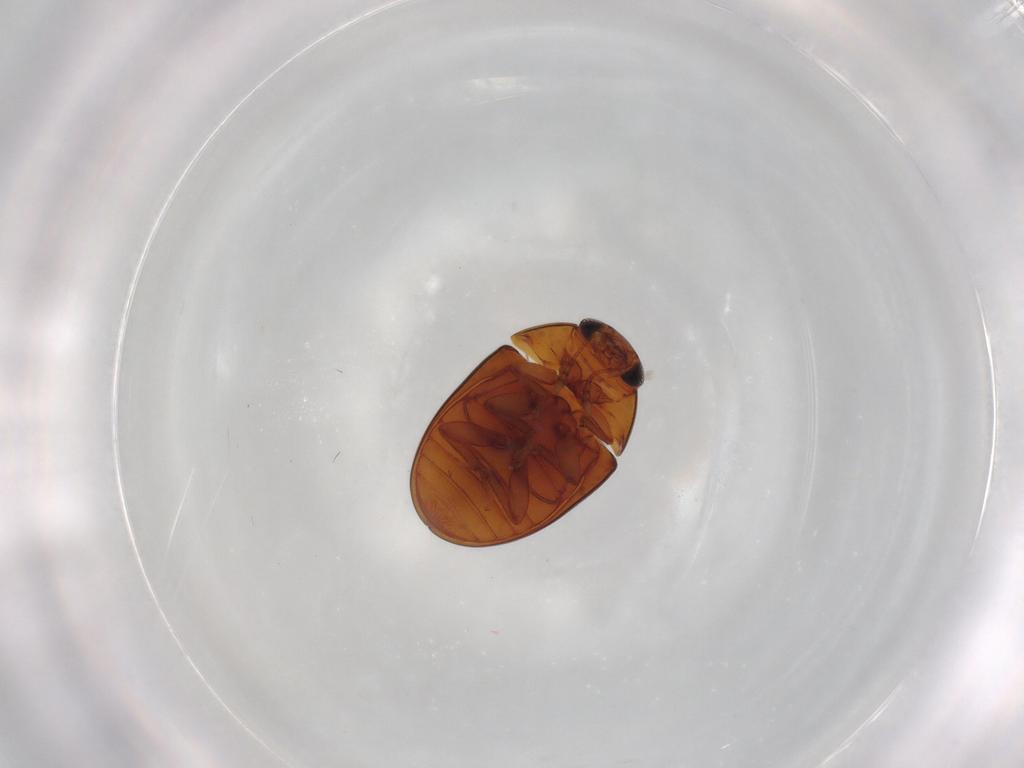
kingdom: Animalia
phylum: Arthropoda
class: Insecta
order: Coleoptera
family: Phalacridae
